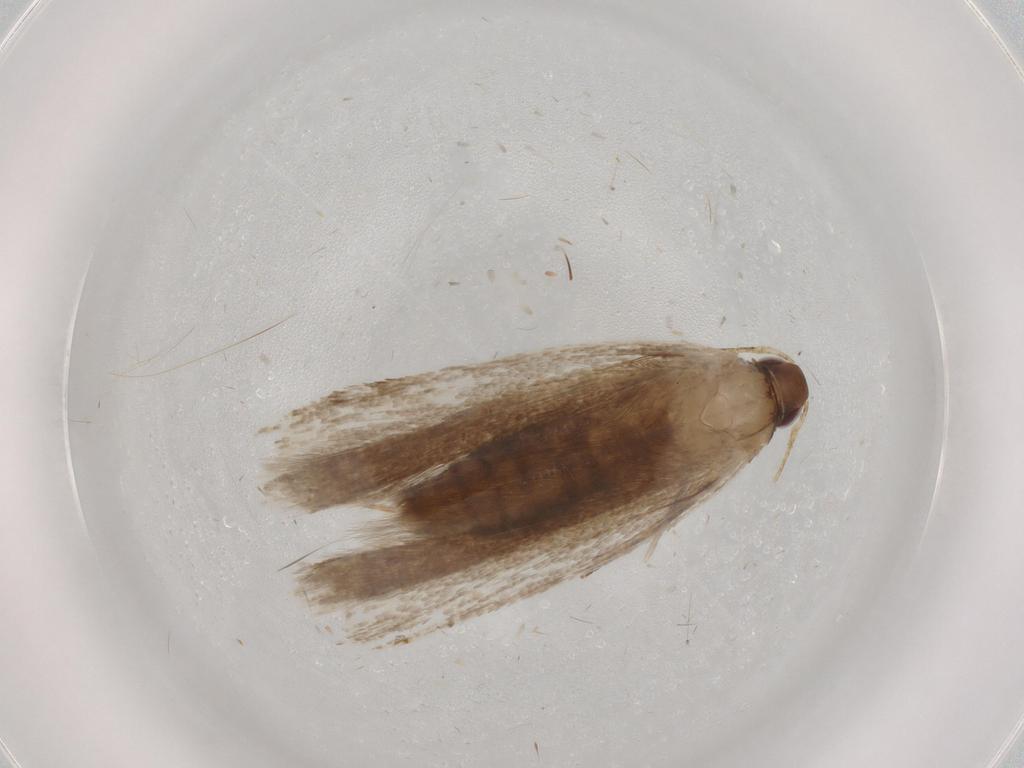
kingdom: Animalia
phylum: Arthropoda
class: Insecta
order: Lepidoptera
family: Gelechiidae
